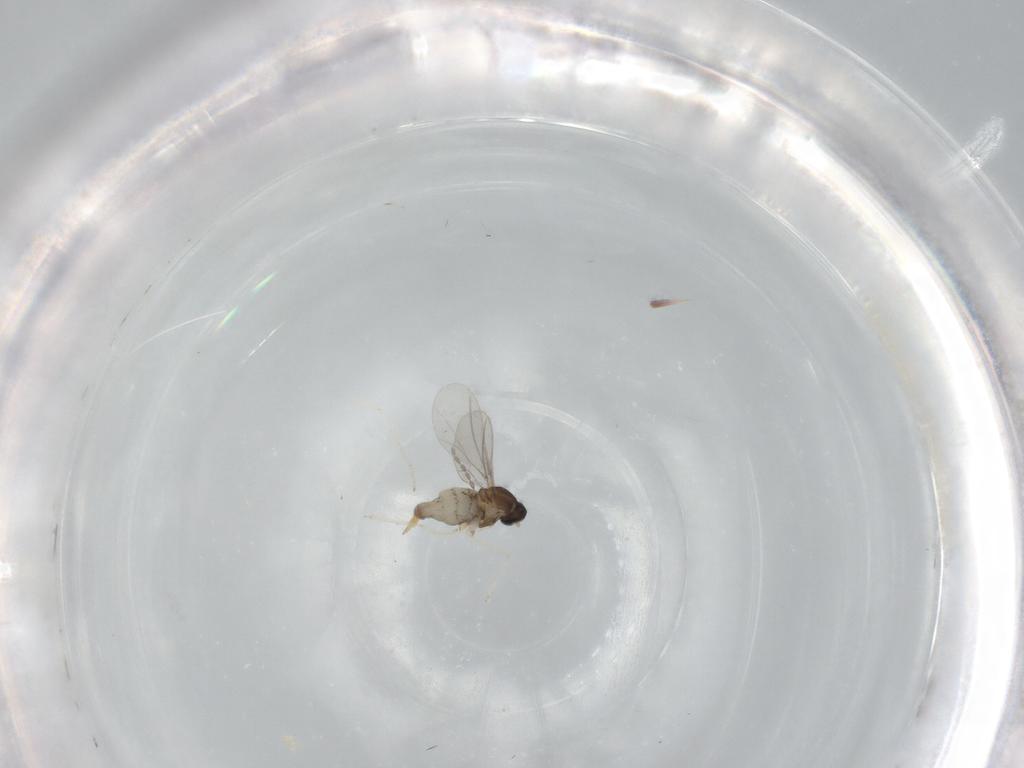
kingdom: Animalia
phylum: Arthropoda
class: Insecta
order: Diptera
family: Cecidomyiidae
